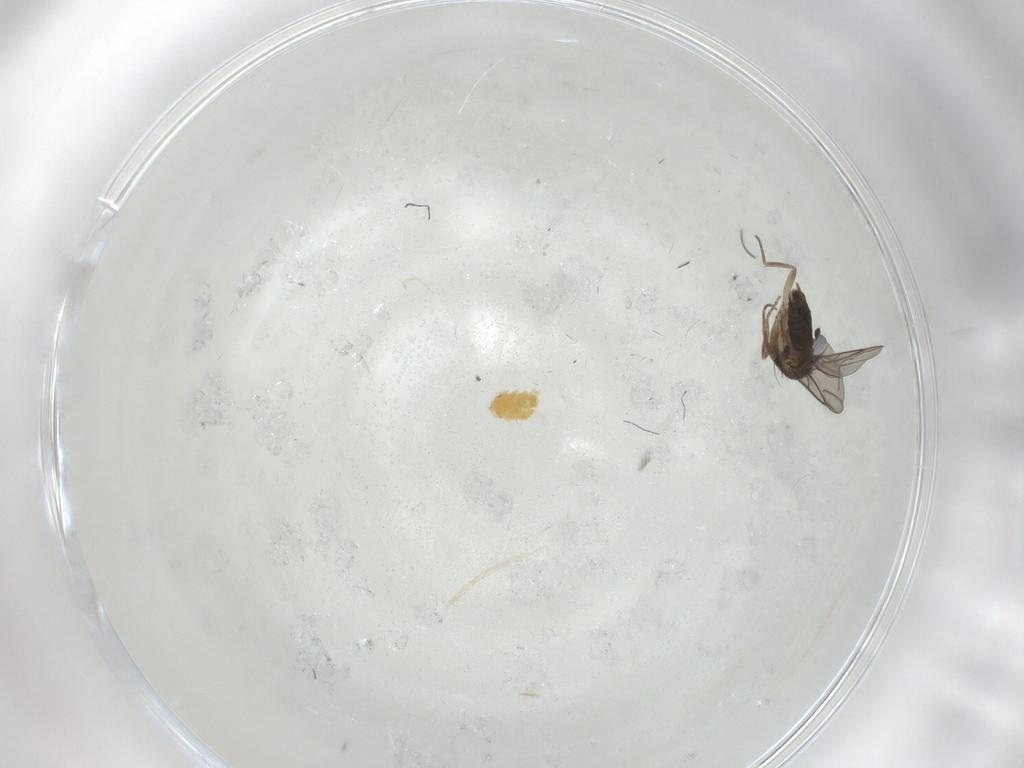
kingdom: Animalia
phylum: Arthropoda
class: Insecta
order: Diptera
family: Phoridae
